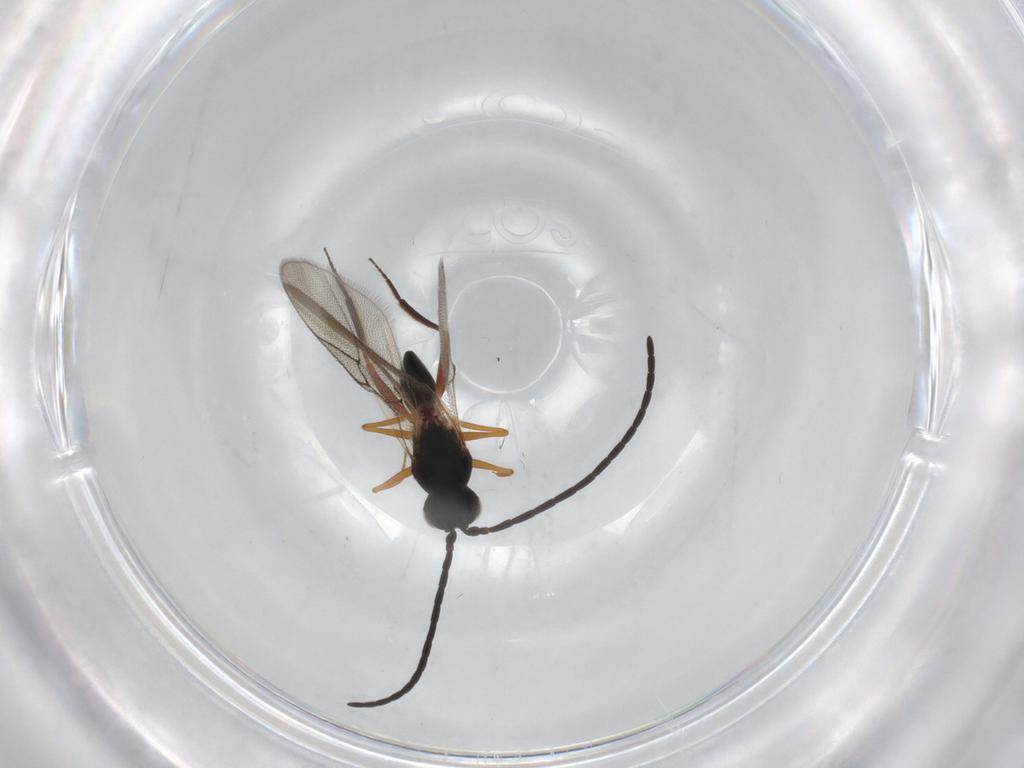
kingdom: Animalia
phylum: Arthropoda
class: Insecta
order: Hymenoptera
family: Figitidae
